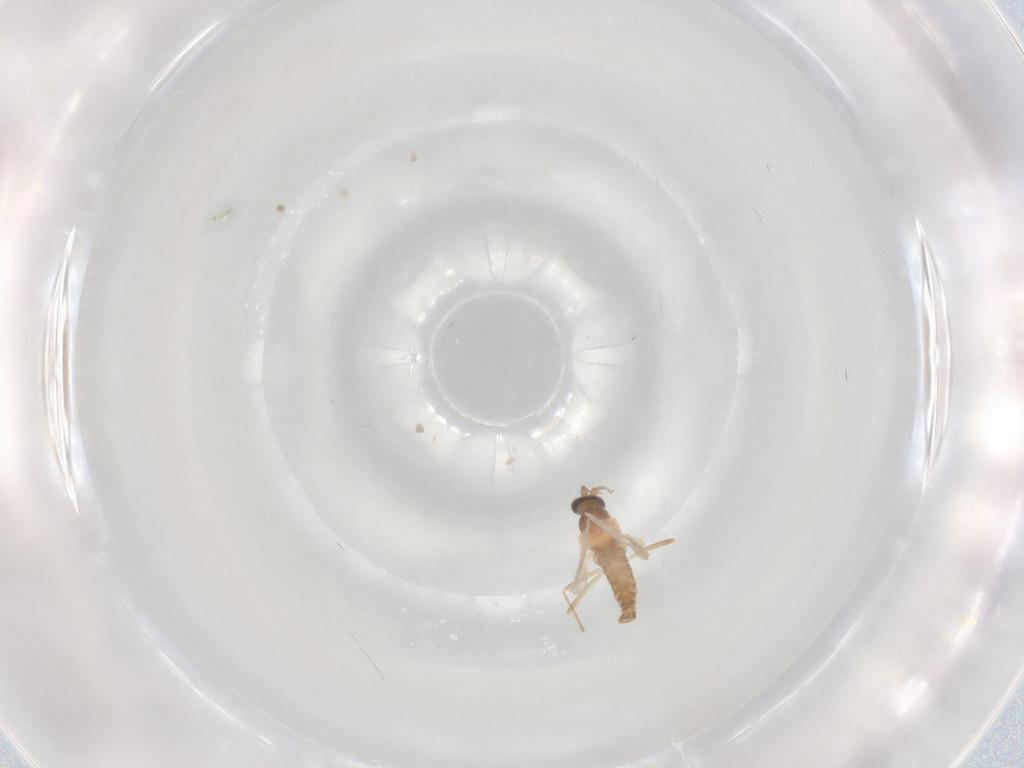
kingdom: Animalia
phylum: Arthropoda
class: Insecta
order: Diptera
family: Cecidomyiidae
